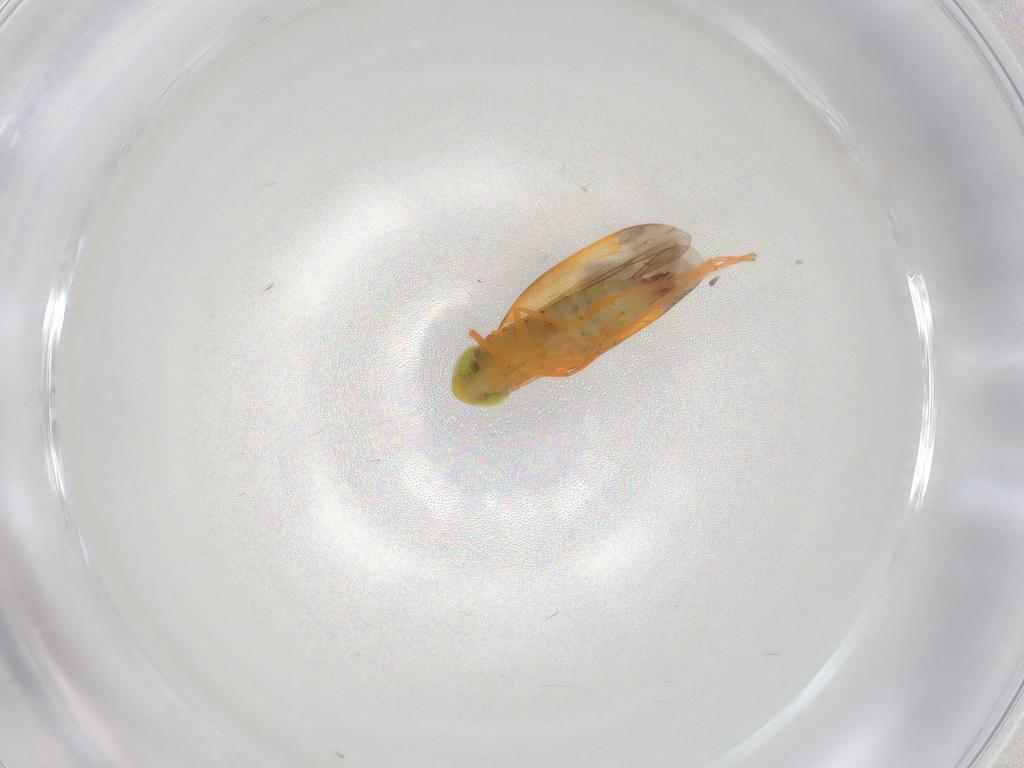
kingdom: Animalia
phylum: Arthropoda
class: Insecta
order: Hemiptera
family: Cicadellidae
